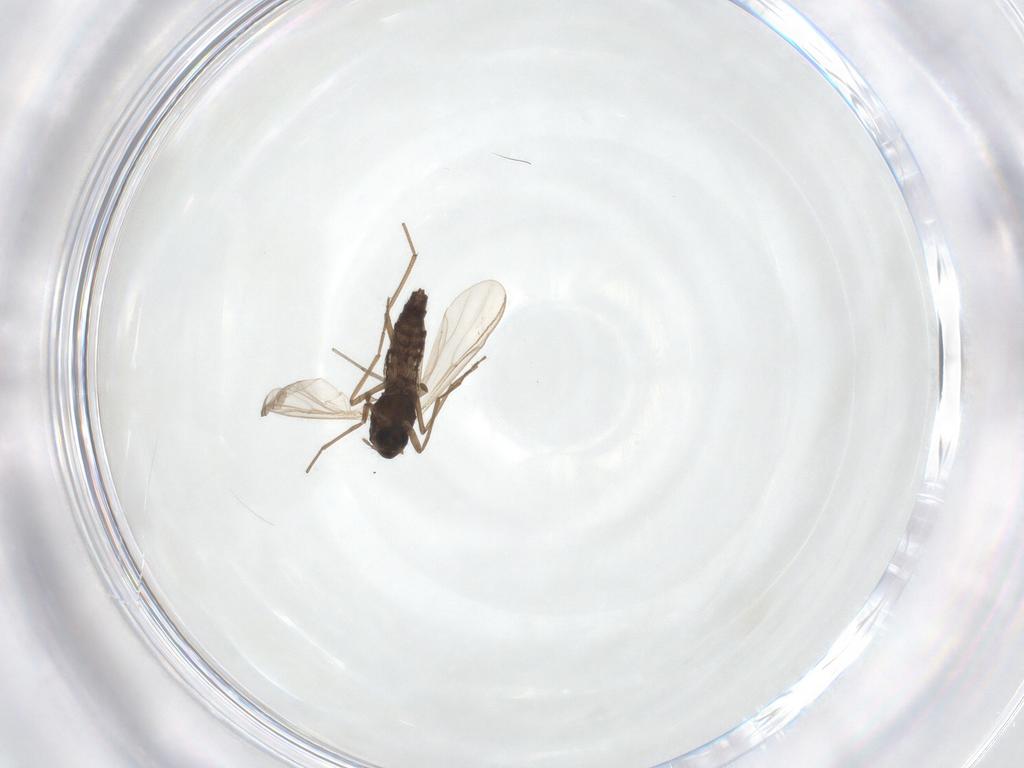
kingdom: Animalia
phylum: Arthropoda
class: Insecta
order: Diptera
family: Chironomidae
